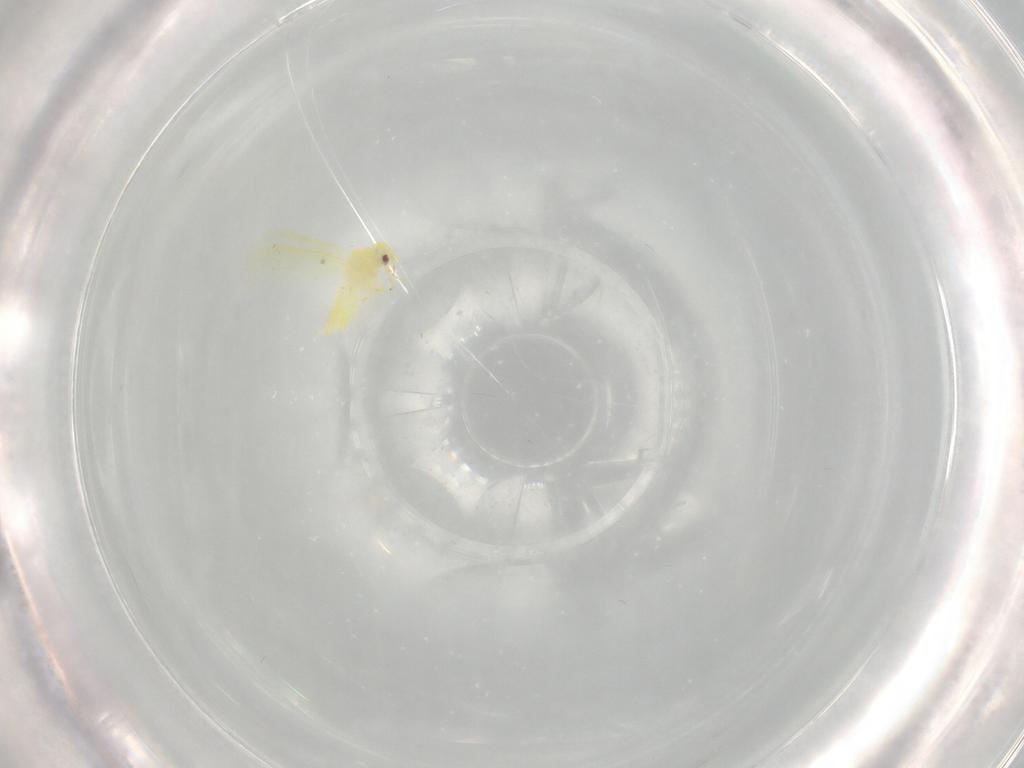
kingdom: Animalia
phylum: Arthropoda
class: Insecta
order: Hemiptera
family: Aleyrodidae
